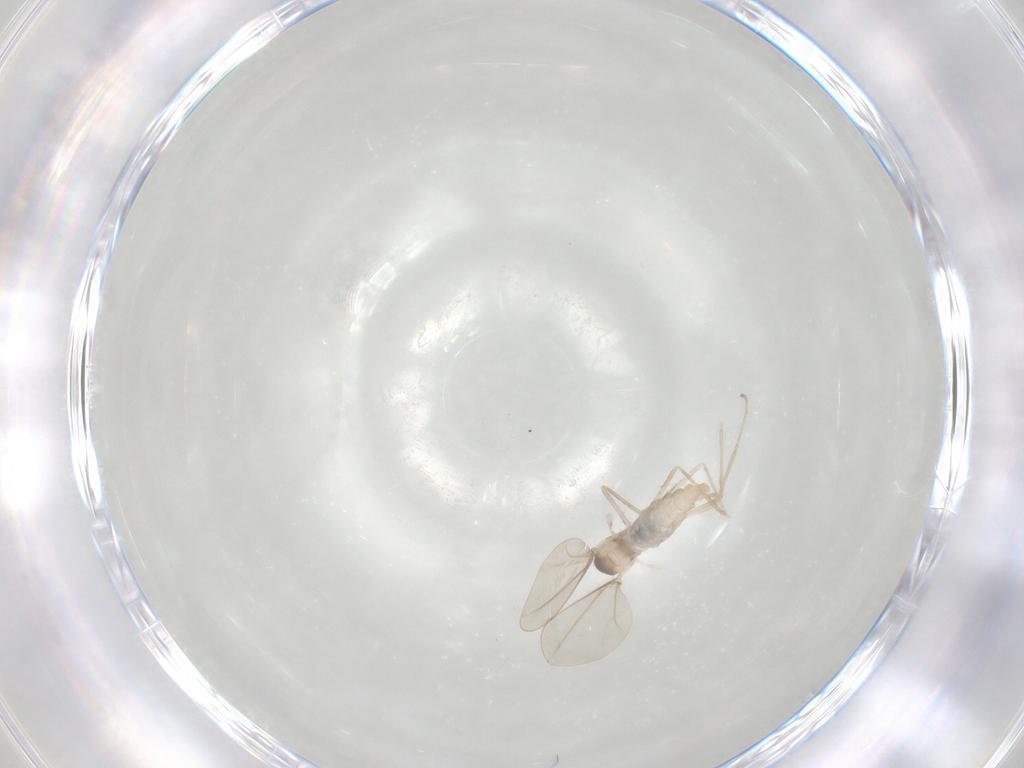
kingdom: Animalia
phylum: Arthropoda
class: Insecta
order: Diptera
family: Cecidomyiidae
